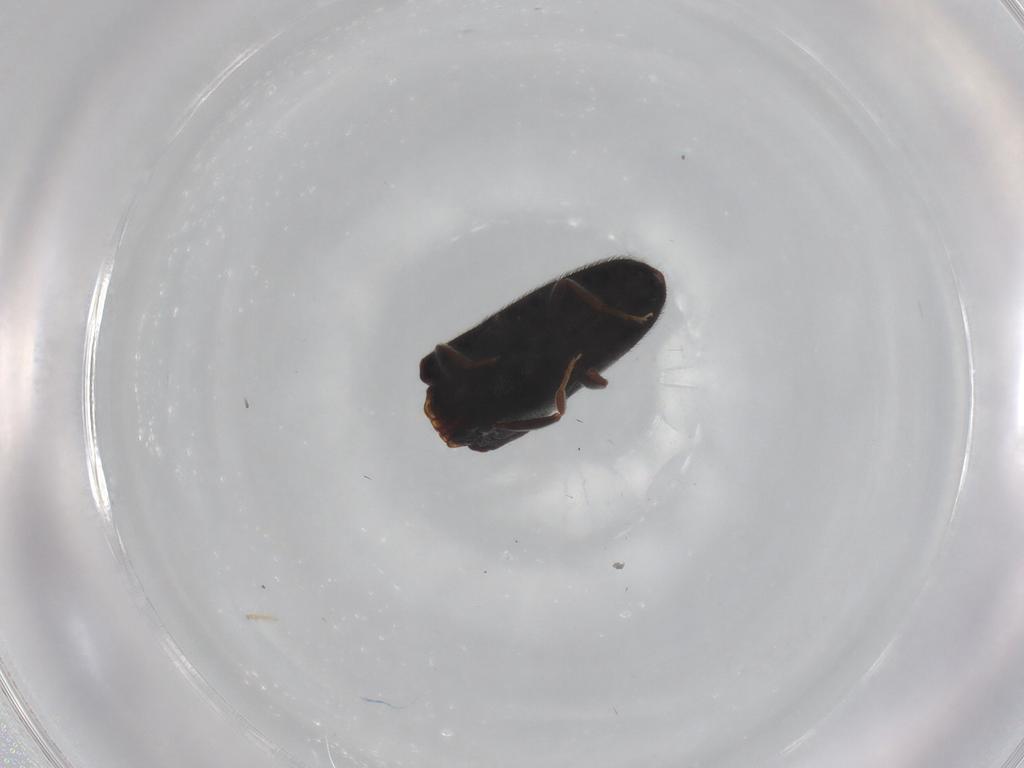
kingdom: Animalia
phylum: Arthropoda
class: Insecta
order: Coleoptera
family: Eucnemidae
